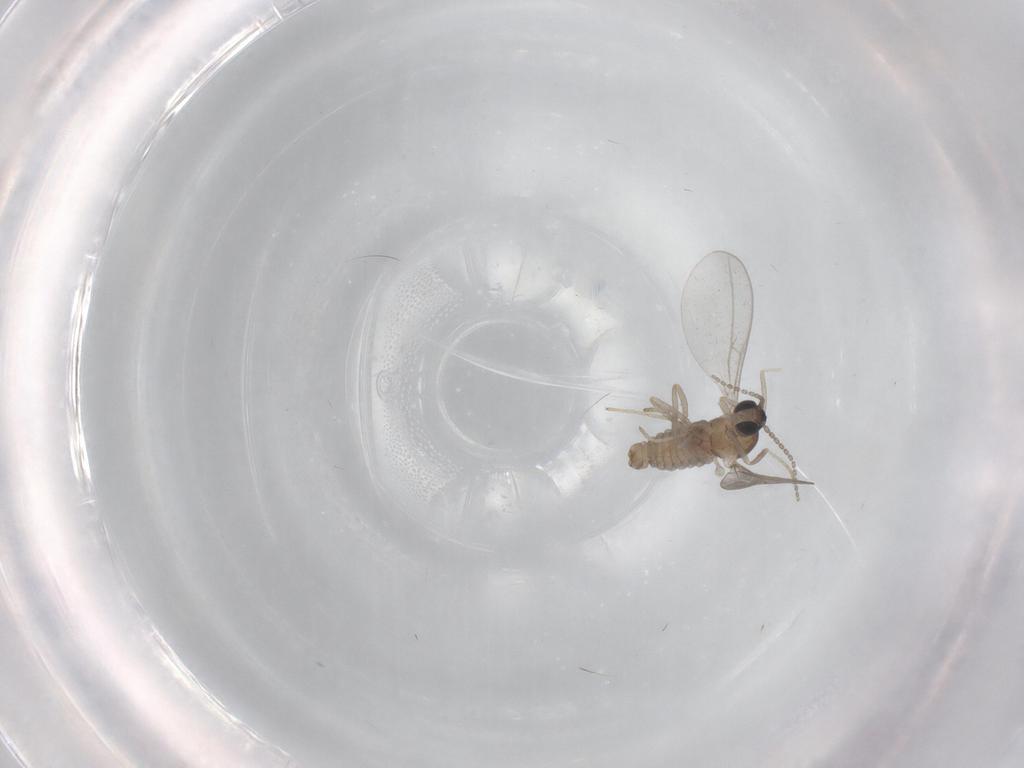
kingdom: Animalia
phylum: Arthropoda
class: Insecta
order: Diptera
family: Cecidomyiidae
